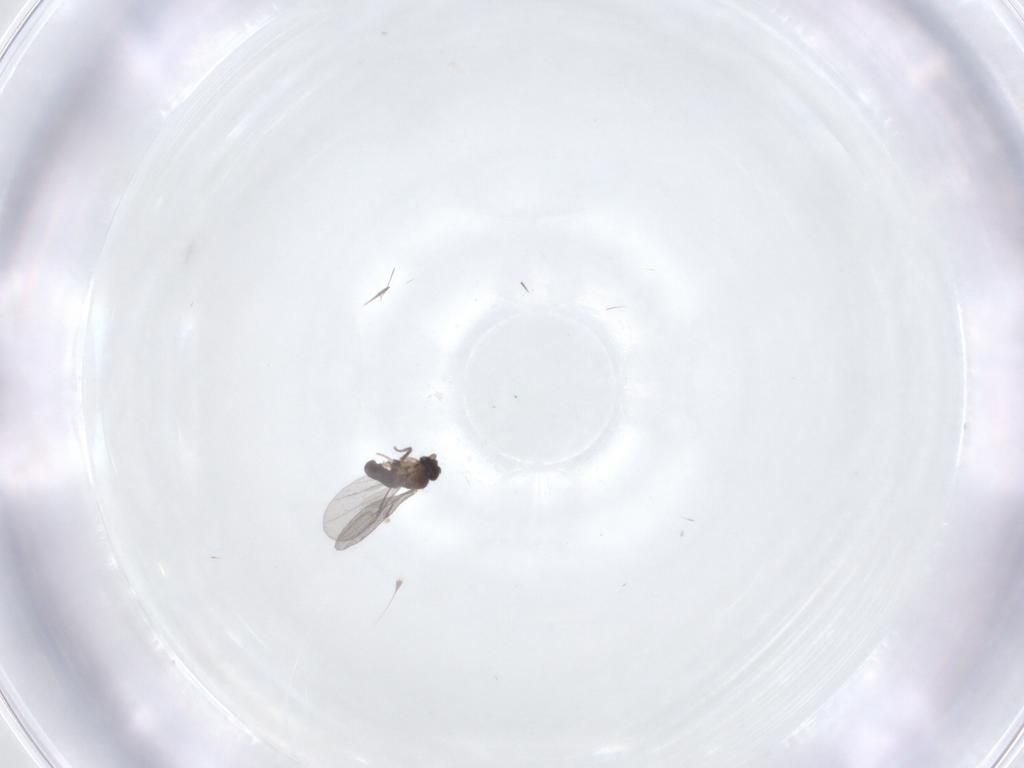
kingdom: Animalia
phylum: Arthropoda
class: Insecta
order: Diptera
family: Phoridae
